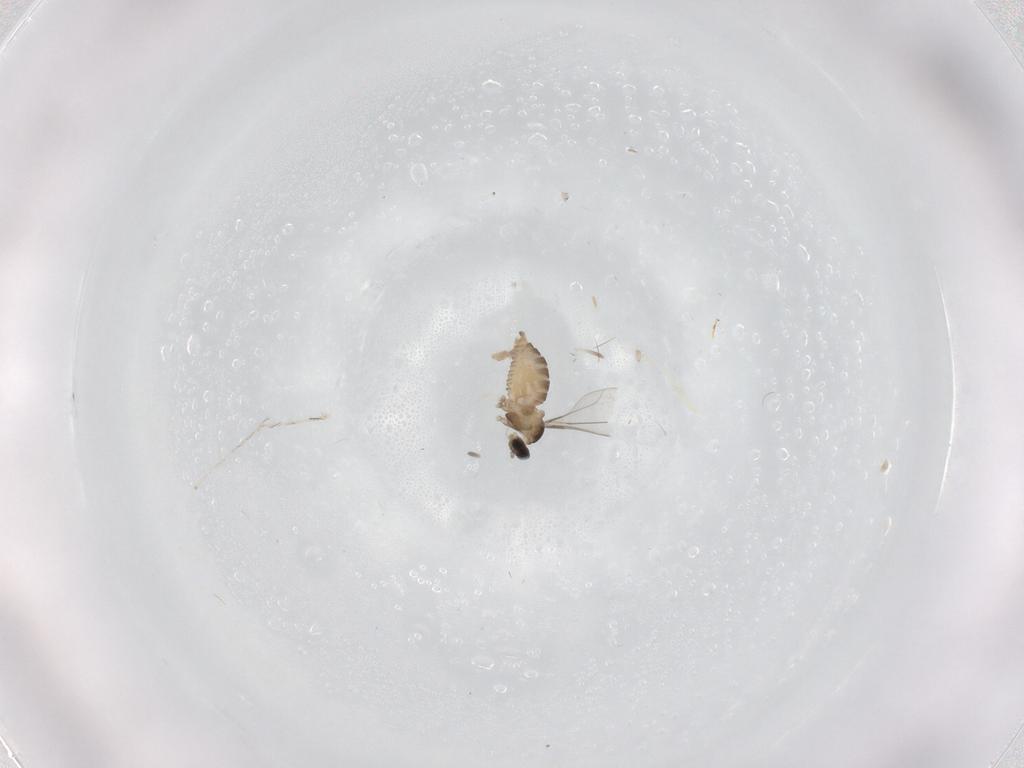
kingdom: Animalia
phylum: Arthropoda
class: Insecta
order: Diptera
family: Cecidomyiidae
